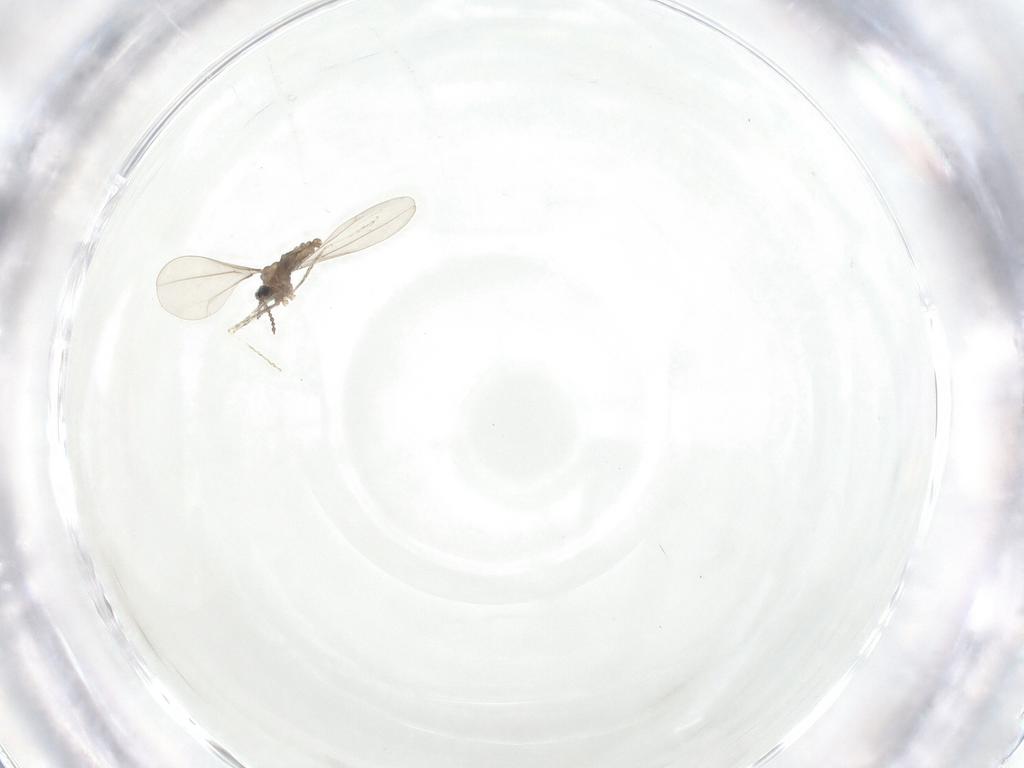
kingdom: Animalia
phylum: Arthropoda
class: Insecta
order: Diptera
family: Cecidomyiidae
